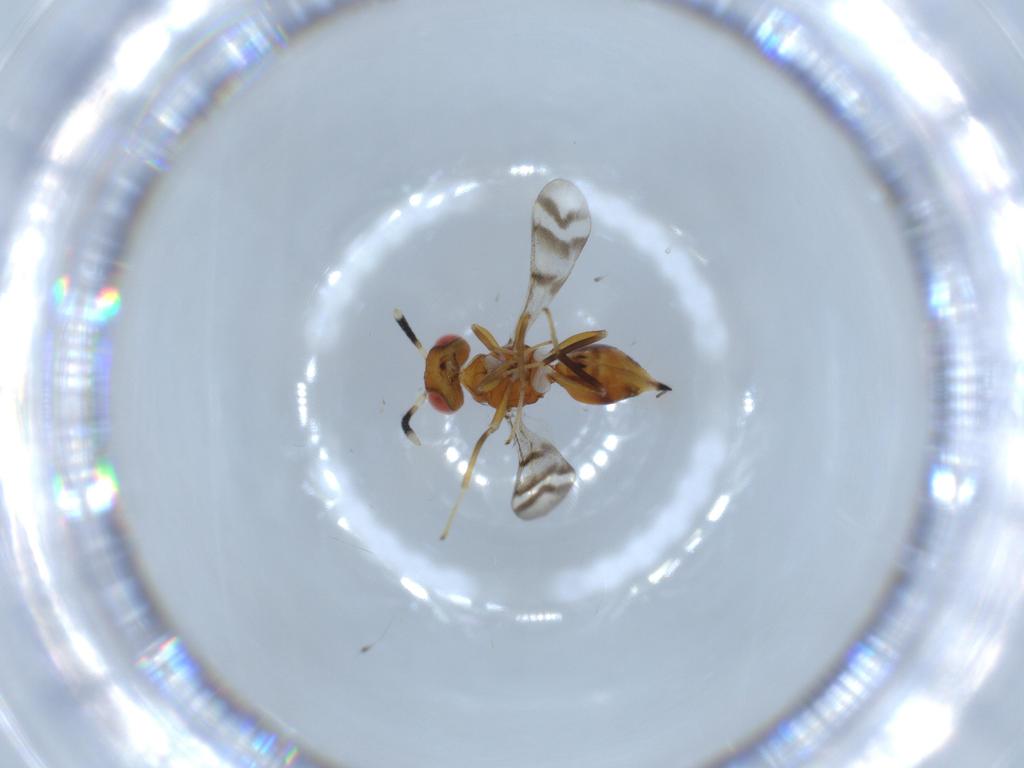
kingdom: Animalia
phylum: Arthropoda
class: Insecta
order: Hymenoptera
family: Diparidae
